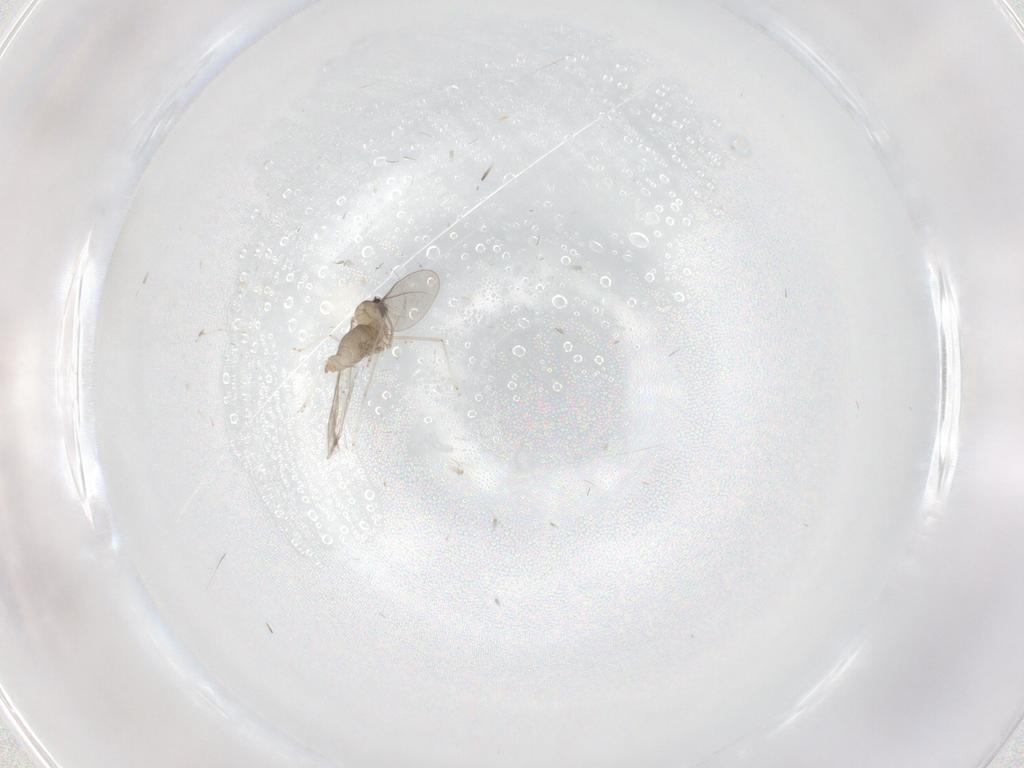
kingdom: Animalia
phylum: Arthropoda
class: Insecta
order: Diptera
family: Cecidomyiidae
